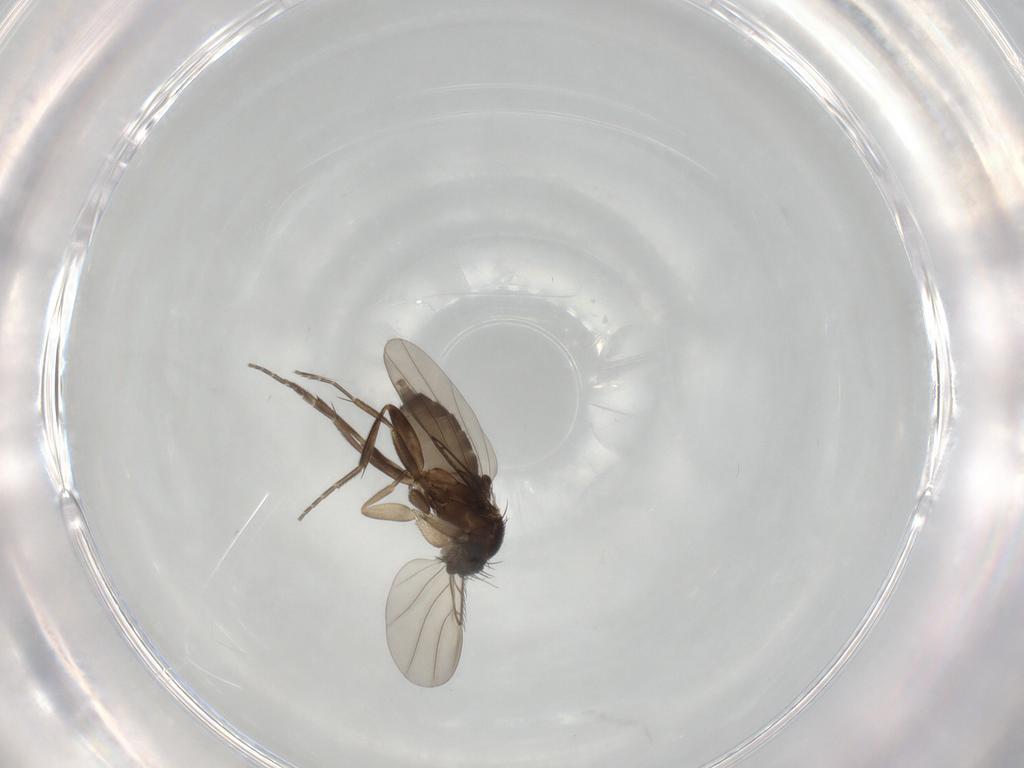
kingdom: Animalia
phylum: Arthropoda
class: Insecta
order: Diptera
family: Phoridae
